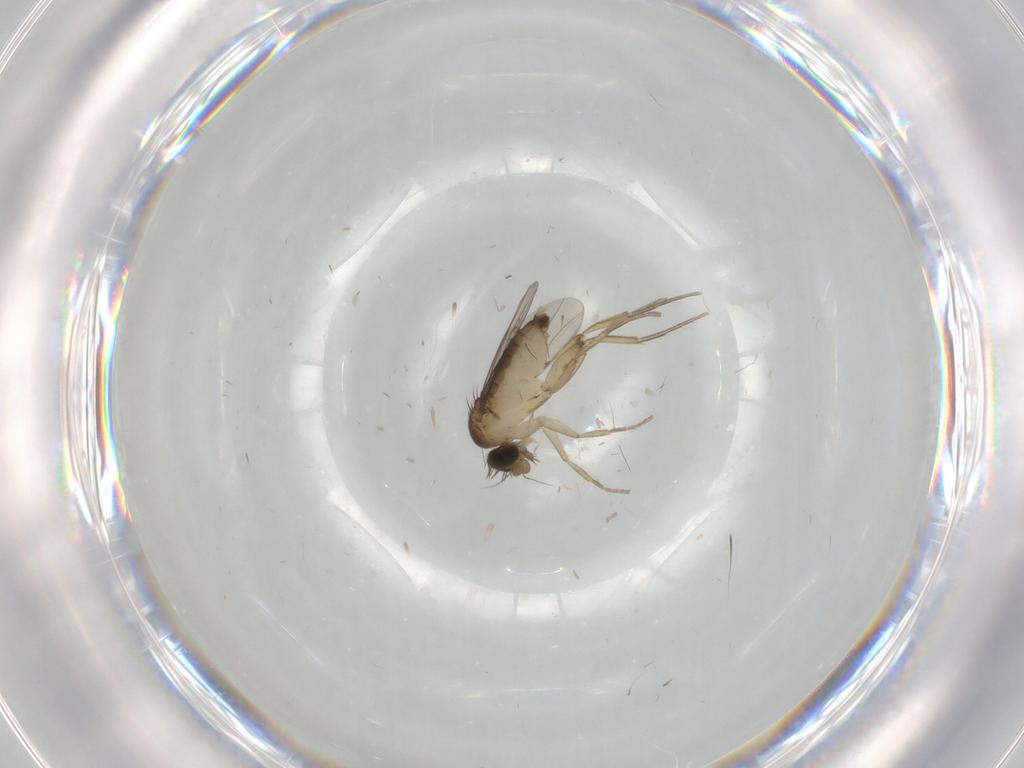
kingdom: Animalia
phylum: Arthropoda
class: Insecta
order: Diptera
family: Phoridae
